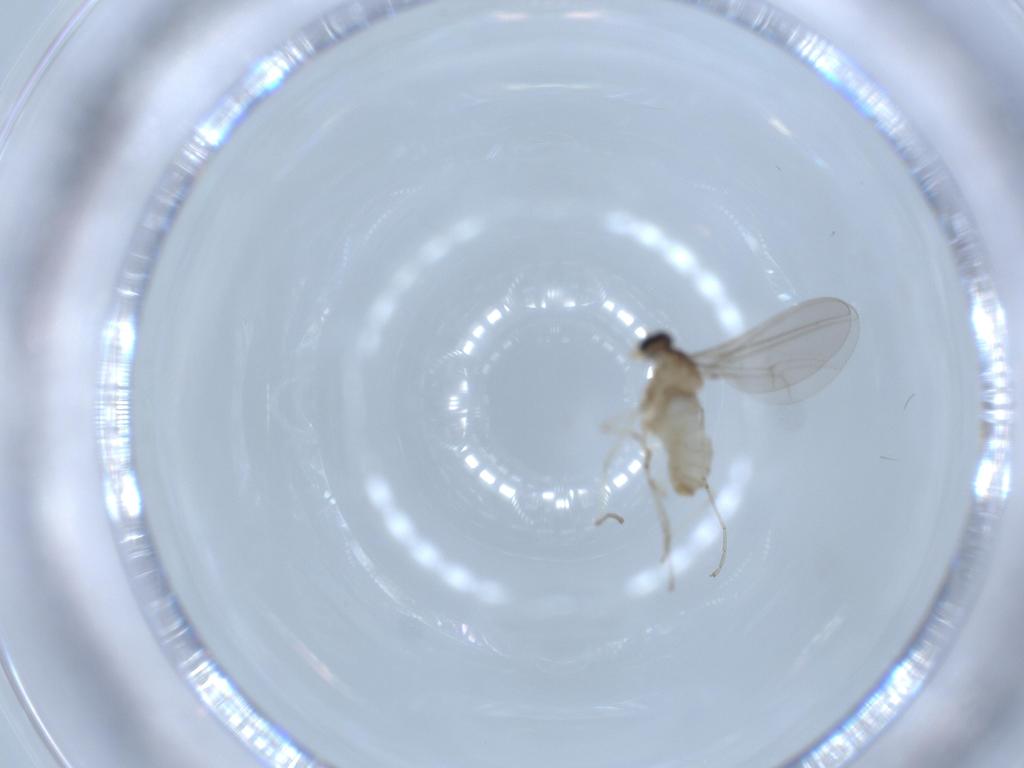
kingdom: Animalia
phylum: Arthropoda
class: Insecta
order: Diptera
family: Cecidomyiidae
